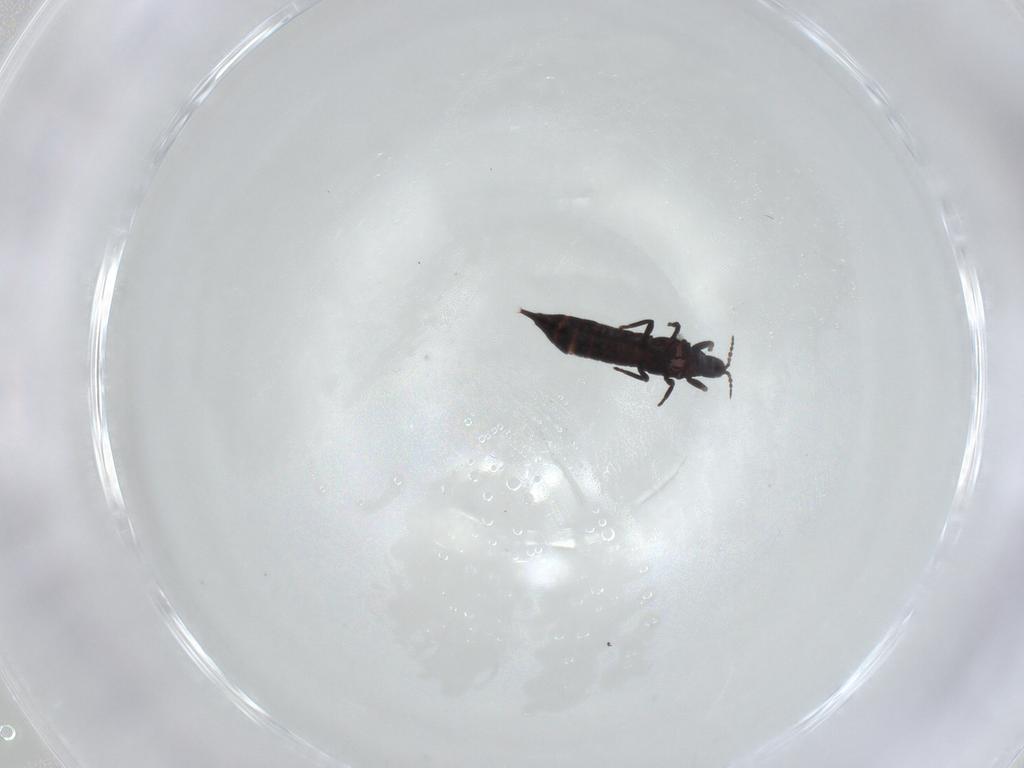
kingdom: Animalia
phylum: Arthropoda
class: Insecta
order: Thysanoptera
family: Phlaeothripidae
